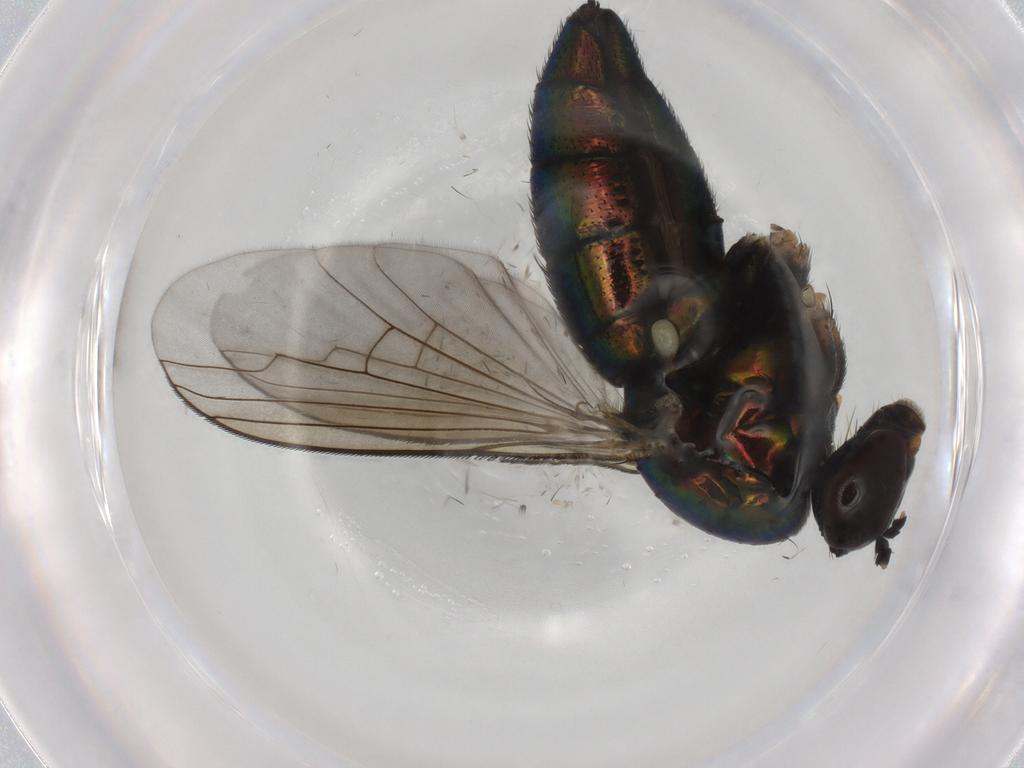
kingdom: Animalia
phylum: Arthropoda
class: Insecta
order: Diptera
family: Dolichopodidae
